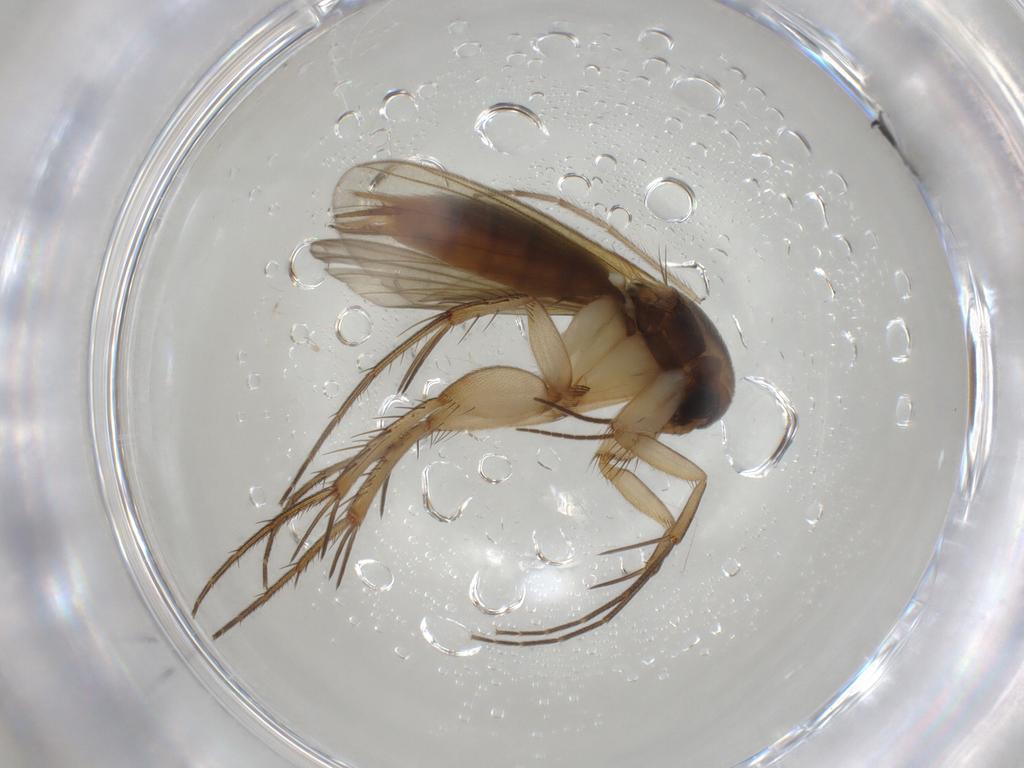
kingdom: Animalia
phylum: Arthropoda
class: Insecta
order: Diptera
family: Mycetophilidae
